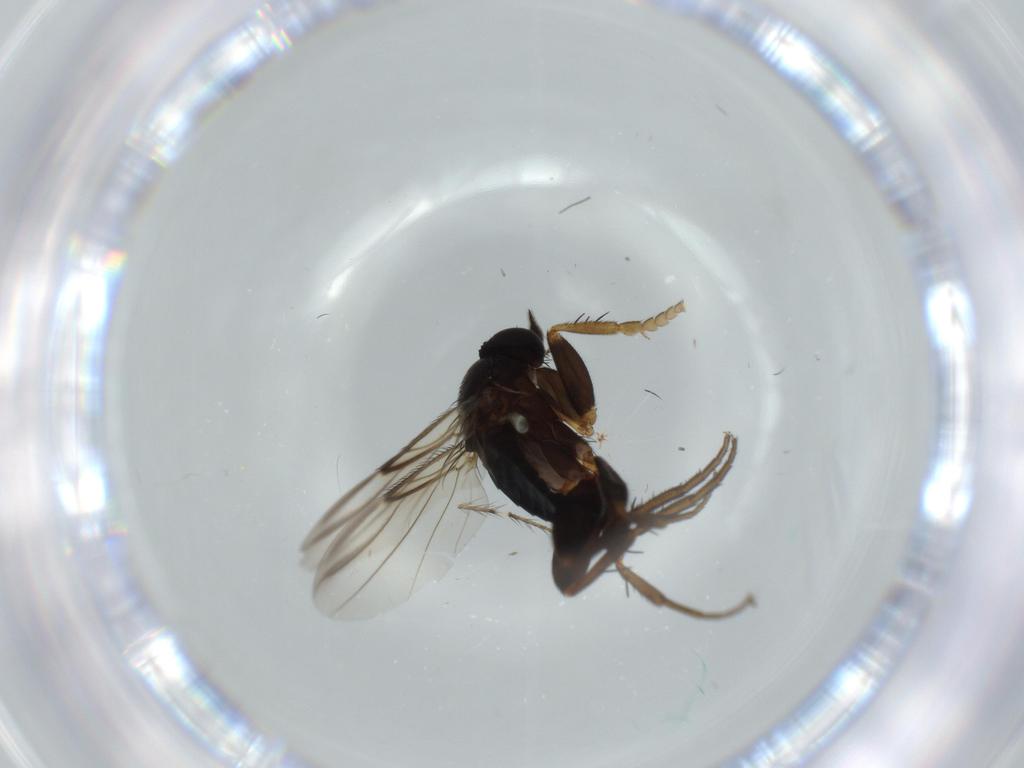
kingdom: Animalia
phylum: Arthropoda
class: Insecta
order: Diptera
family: Phoridae
